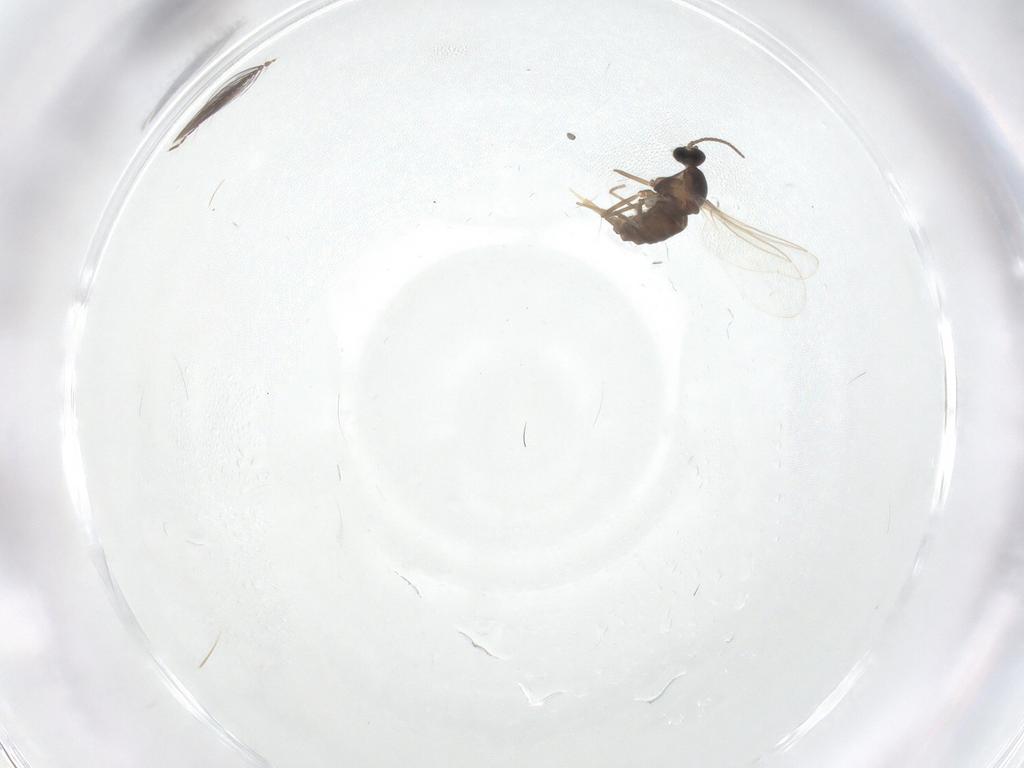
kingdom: Animalia
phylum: Arthropoda
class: Insecta
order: Diptera
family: Cecidomyiidae
